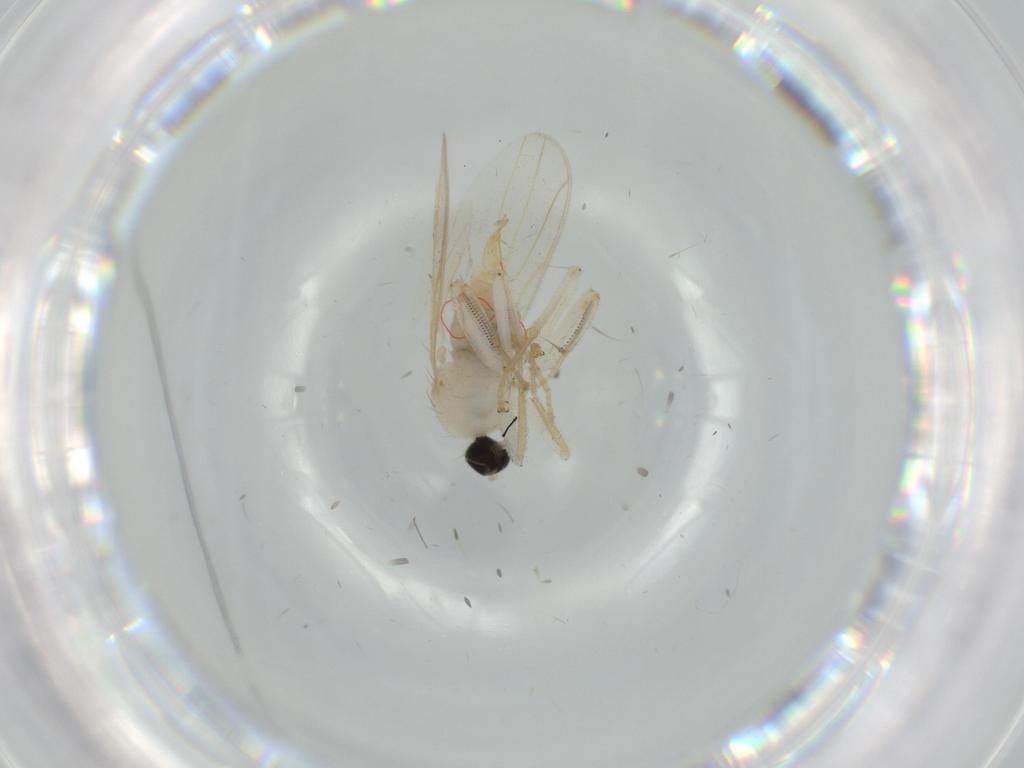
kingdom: Animalia
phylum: Arthropoda
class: Insecta
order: Diptera
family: Hybotidae
